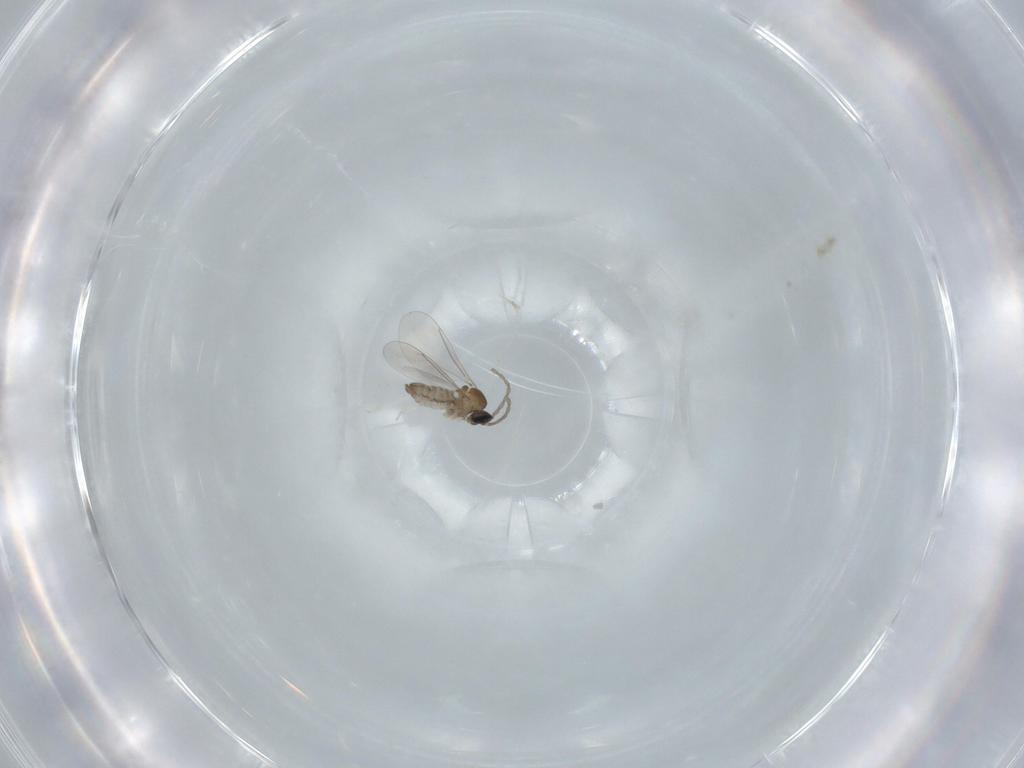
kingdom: Animalia
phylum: Arthropoda
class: Insecta
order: Diptera
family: Cecidomyiidae
